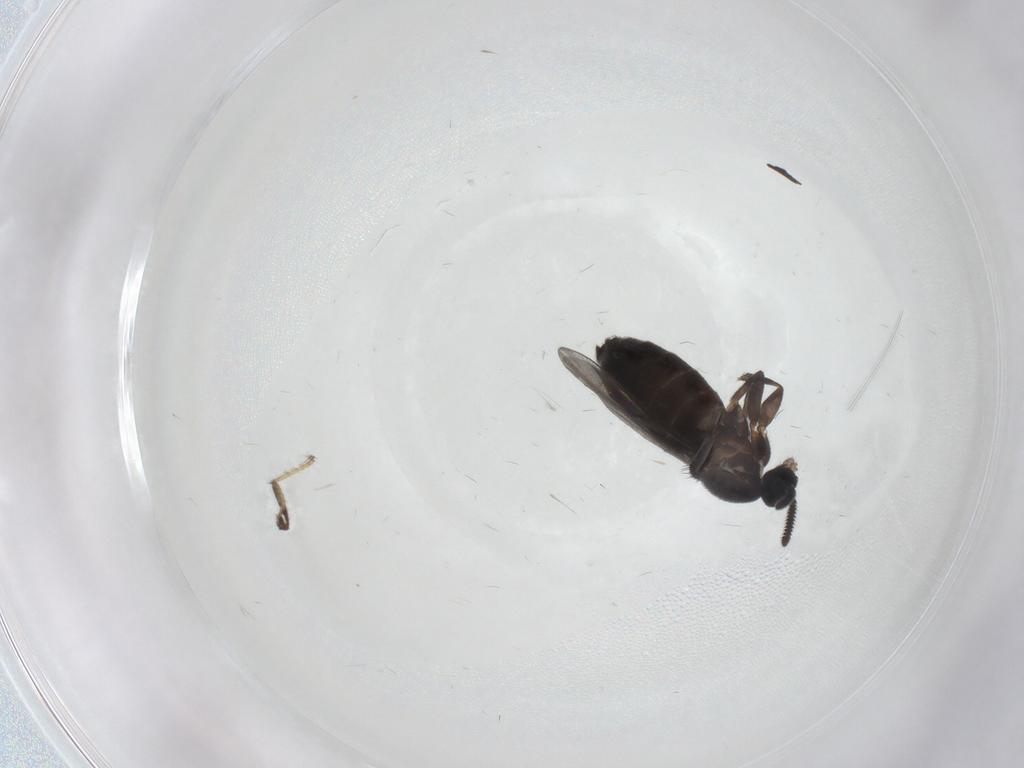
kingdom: Animalia
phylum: Arthropoda
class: Insecta
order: Diptera
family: Scatopsidae
